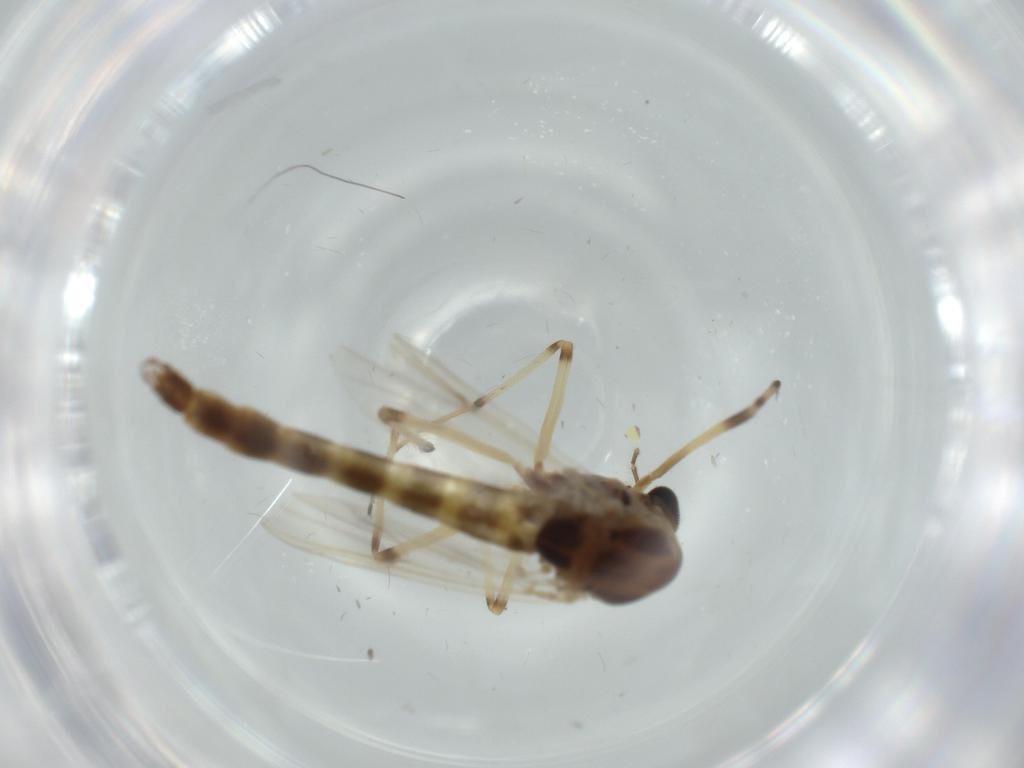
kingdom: Animalia
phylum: Arthropoda
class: Insecta
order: Diptera
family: Chironomidae
